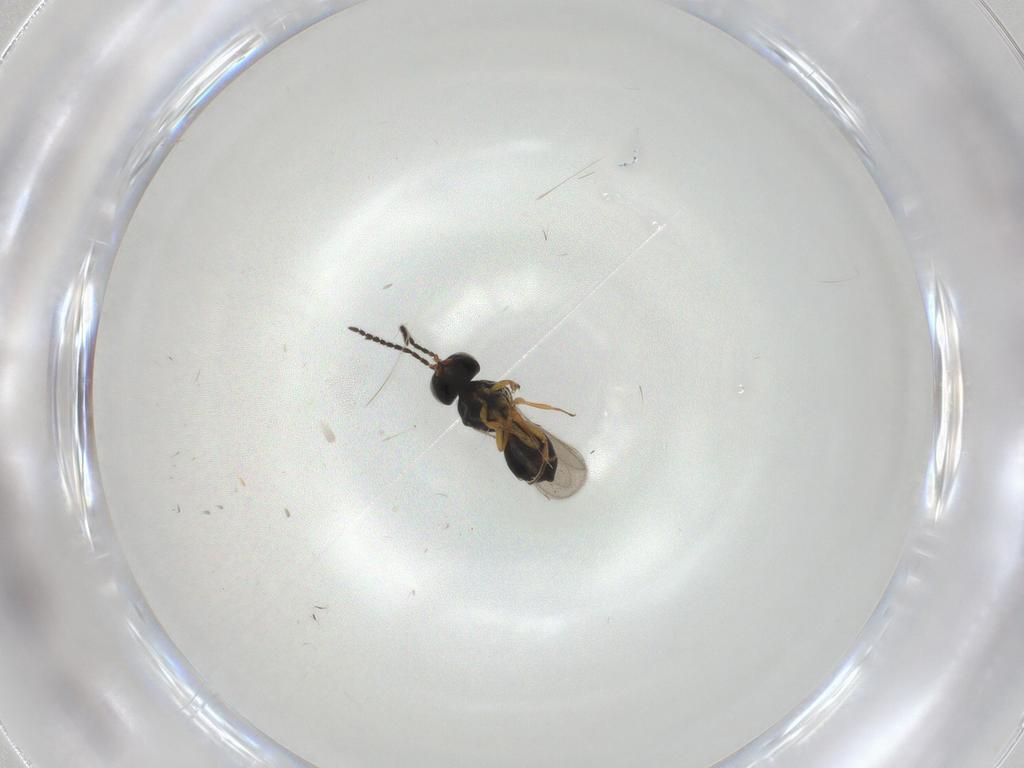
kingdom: Animalia
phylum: Arthropoda
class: Insecta
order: Hymenoptera
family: Scelionidae
